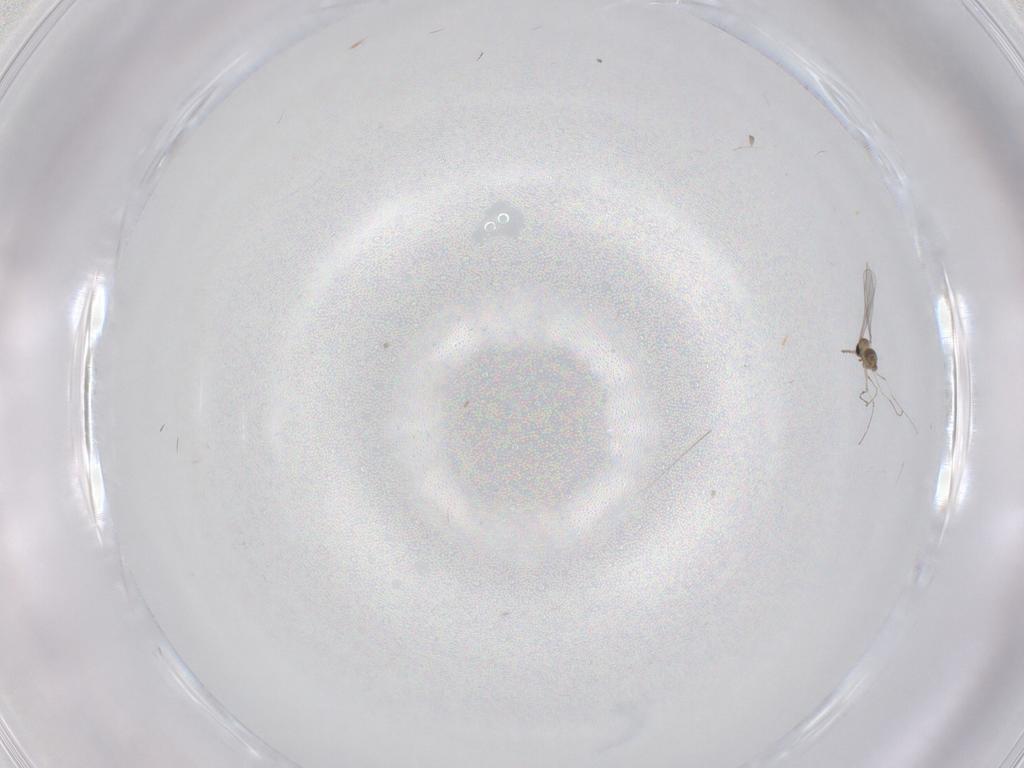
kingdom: Animalia
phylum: Arthropoda
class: Insecta
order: Diptera
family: Cecidomyiidae
